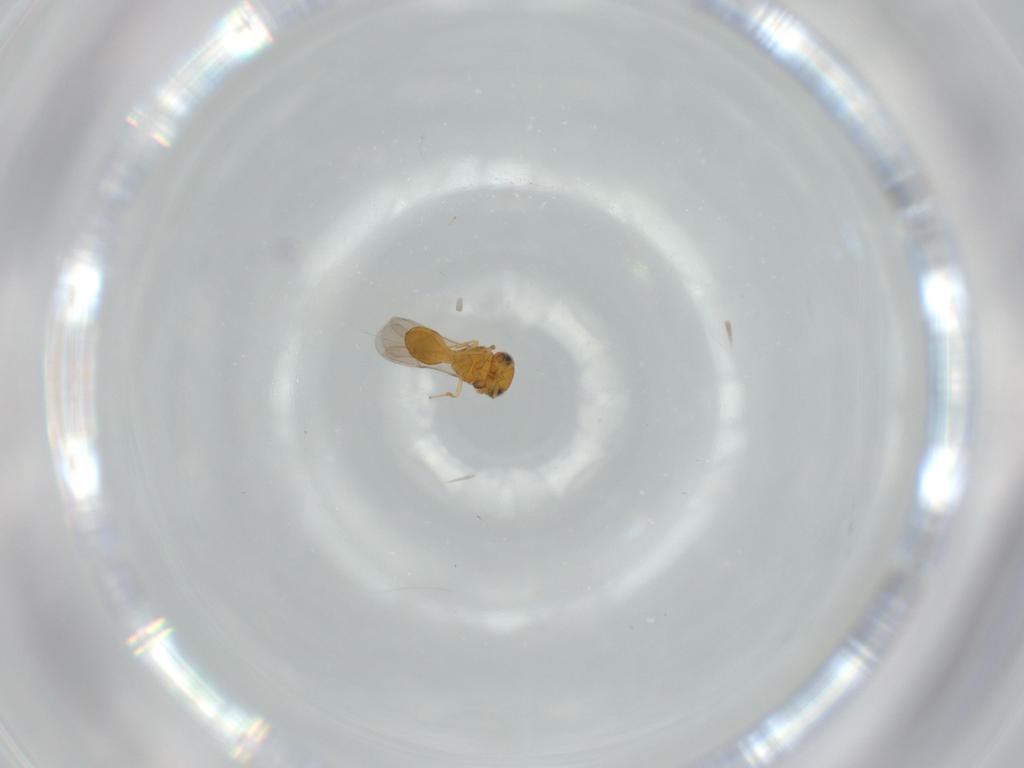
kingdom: Animalia
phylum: Arthropoda
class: Insecta
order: Hymenoptera
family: Scelionidae
